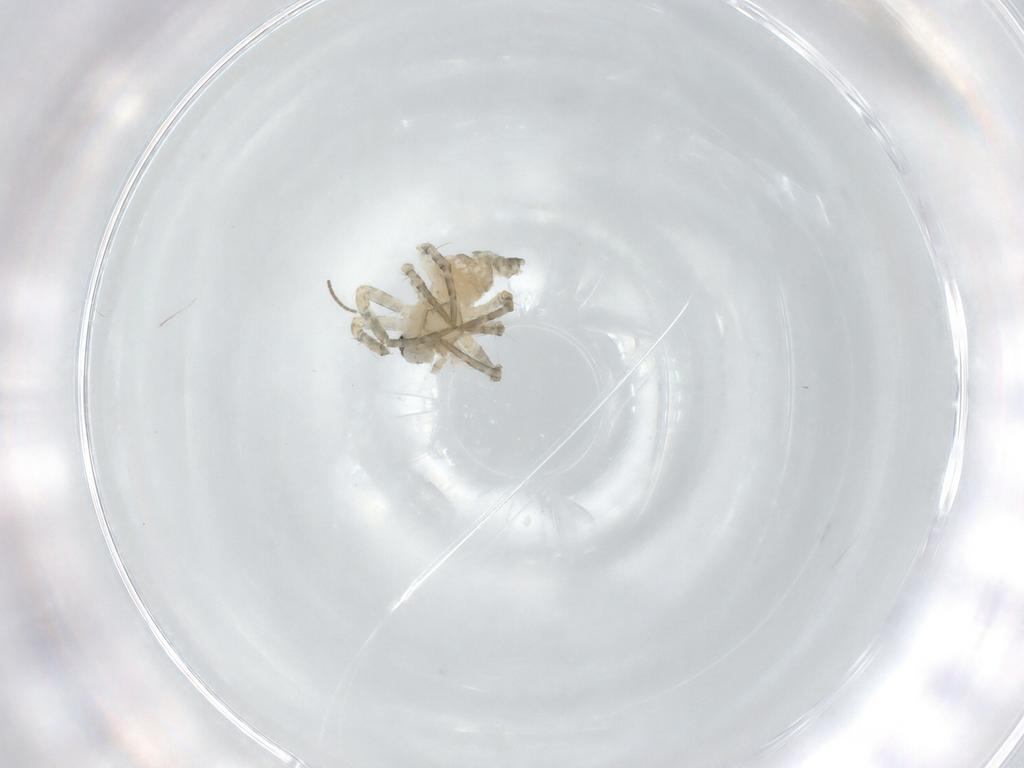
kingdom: Animalia
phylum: Arthropoda
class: Arachnida
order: Araneae
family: Araneidae
